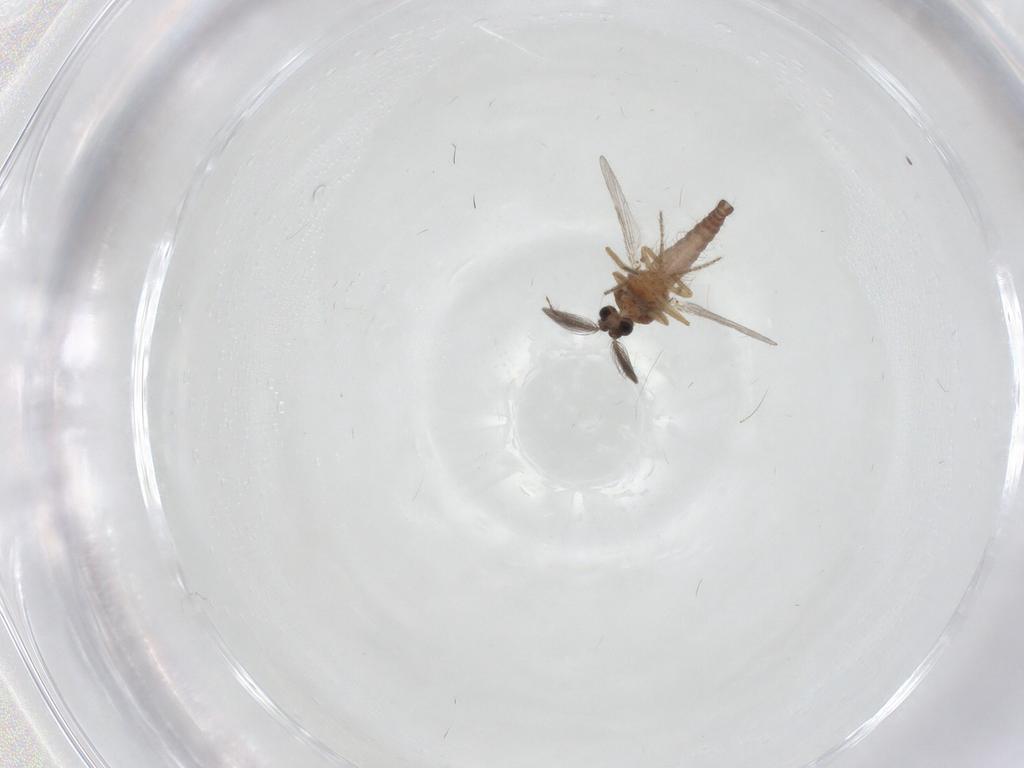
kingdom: Animalia
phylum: Arthropoda
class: Insecta
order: Diptera
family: Ceratopogonidae
